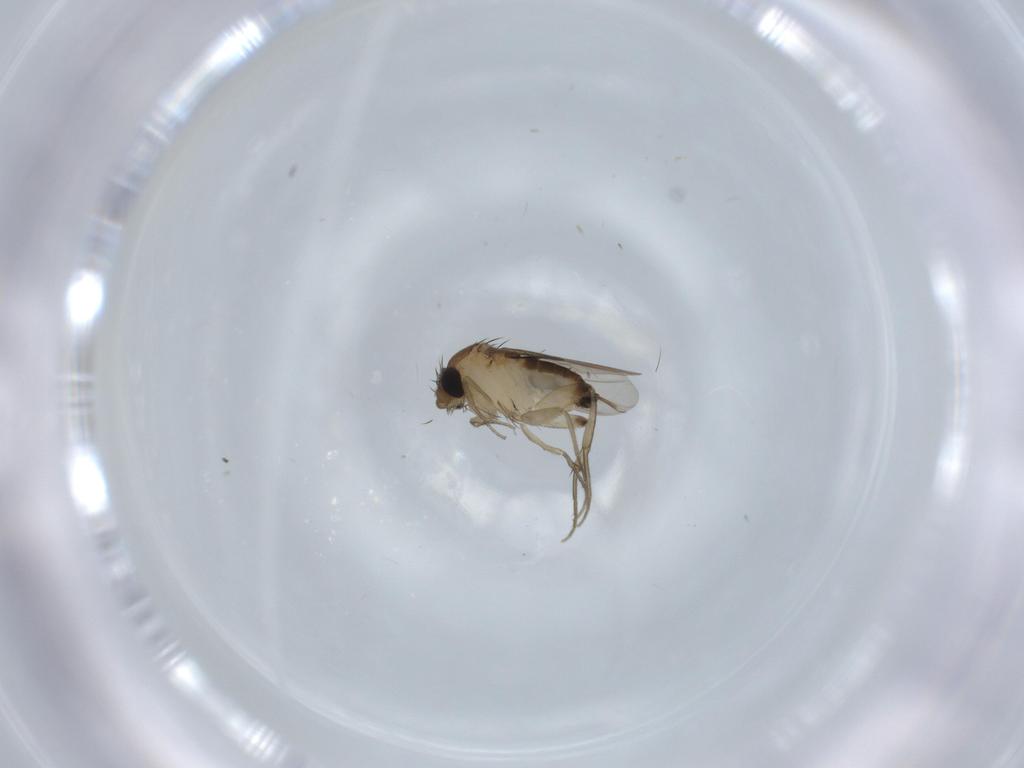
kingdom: Animalia
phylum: Arthropoda
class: Insecta
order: Diptera
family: Phoridae
